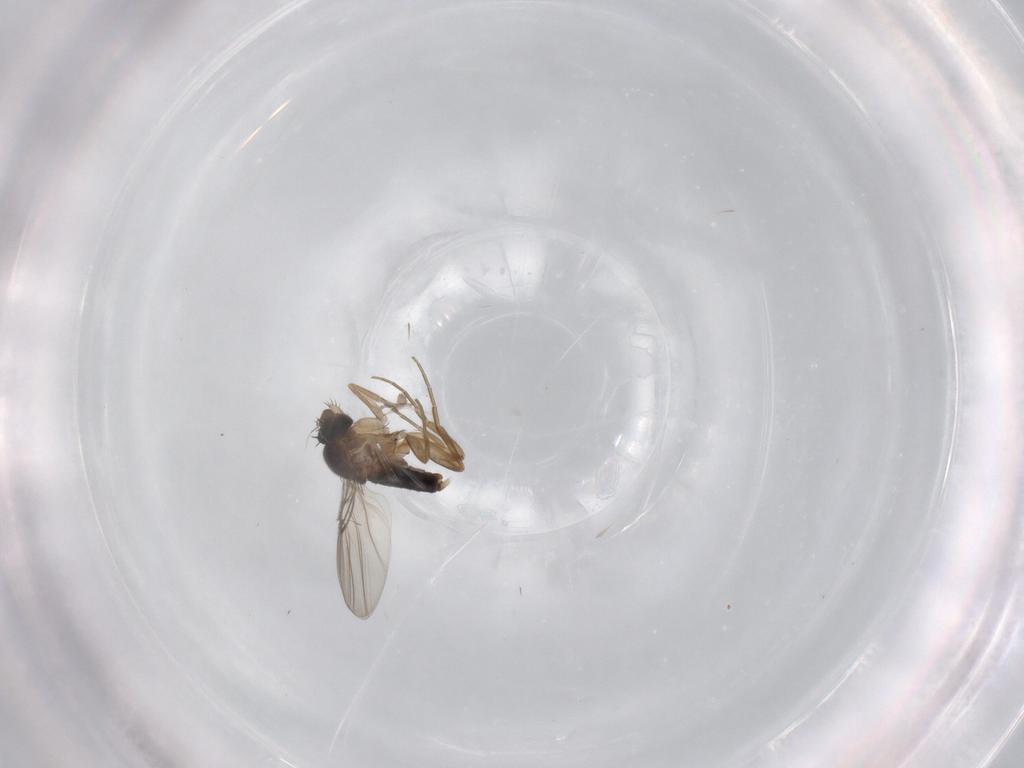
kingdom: Animalia
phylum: Arthropoda
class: Insecta
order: Diptera
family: Phoridae
